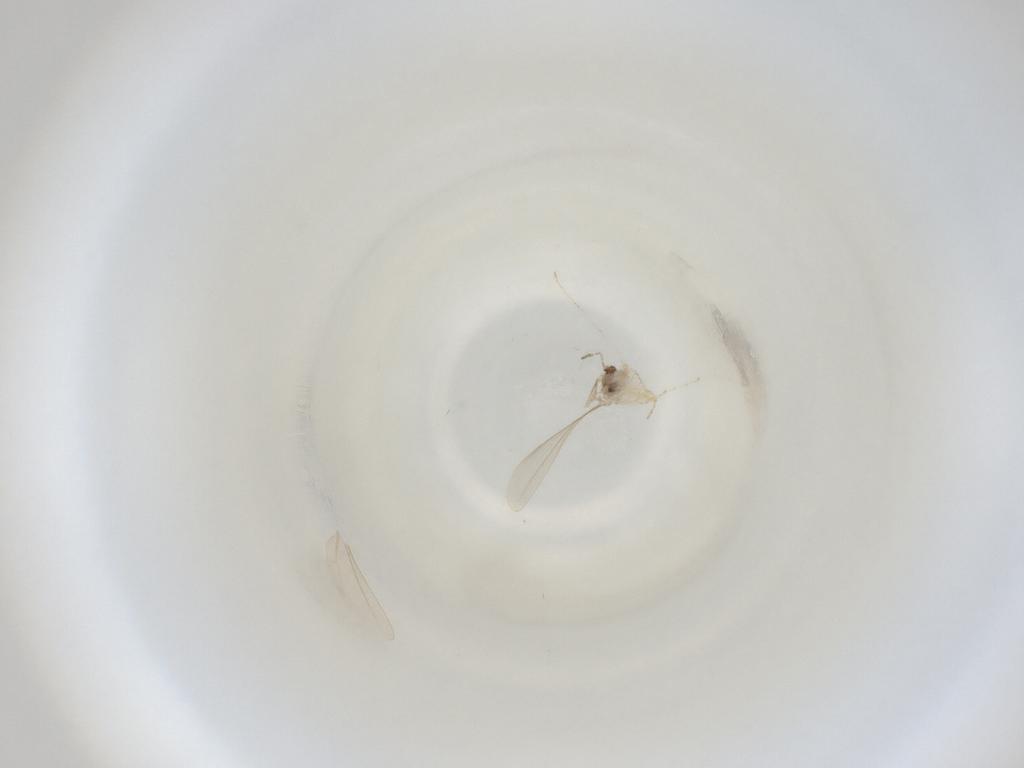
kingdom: Animalia
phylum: Arthropoda
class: Insecta
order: Diptera
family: Cecidomyiidae
